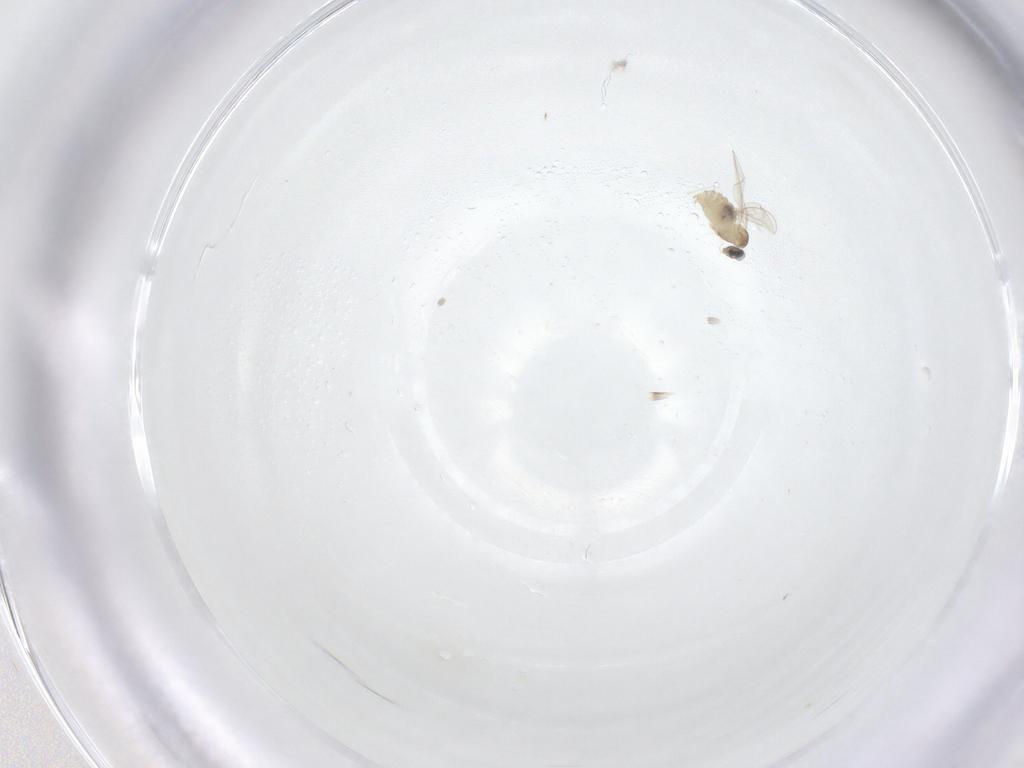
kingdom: Animalia
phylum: Arthropoda
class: Insecta
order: Diptera
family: Cecidomyiidae
